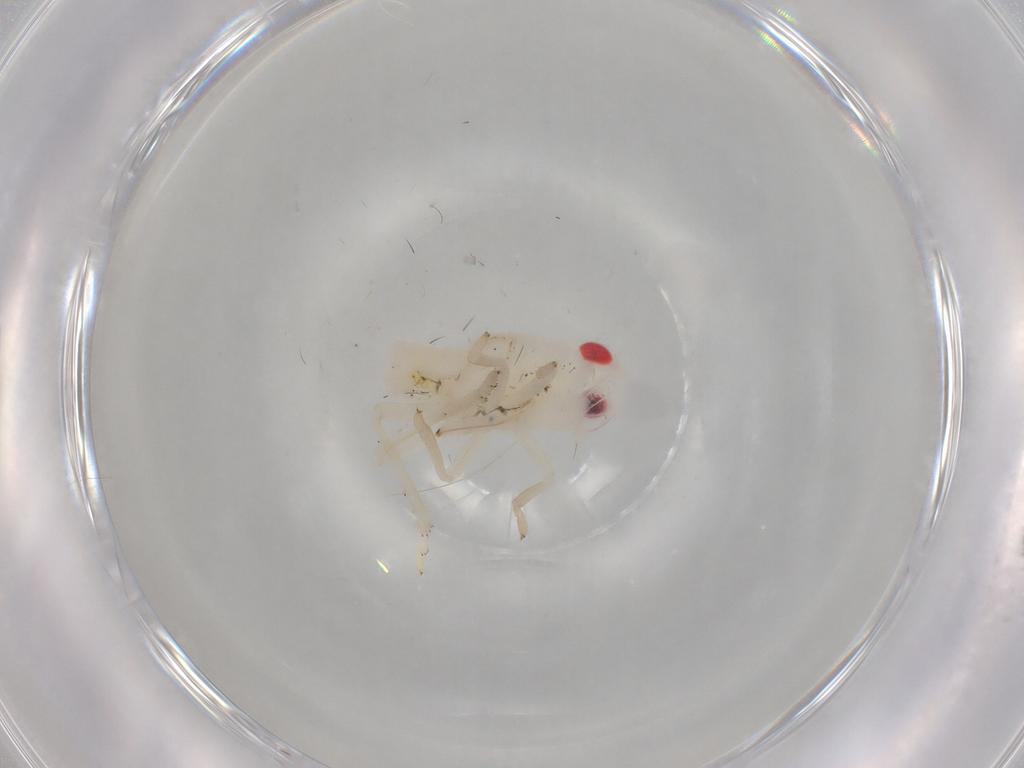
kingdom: Animalia
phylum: Arthropoda
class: Insecta
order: Hemiptera
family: Tropiduchidae
